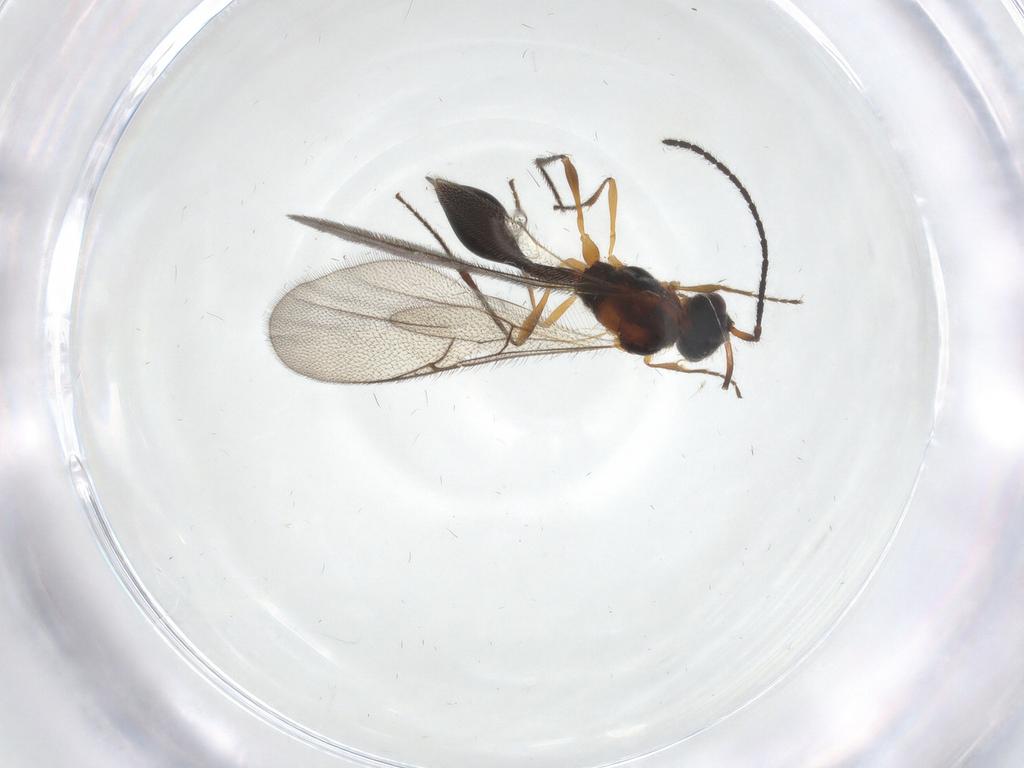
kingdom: Animalia
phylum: Arthropoda
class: Insecta
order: Hymenoptera
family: Diapriidae
